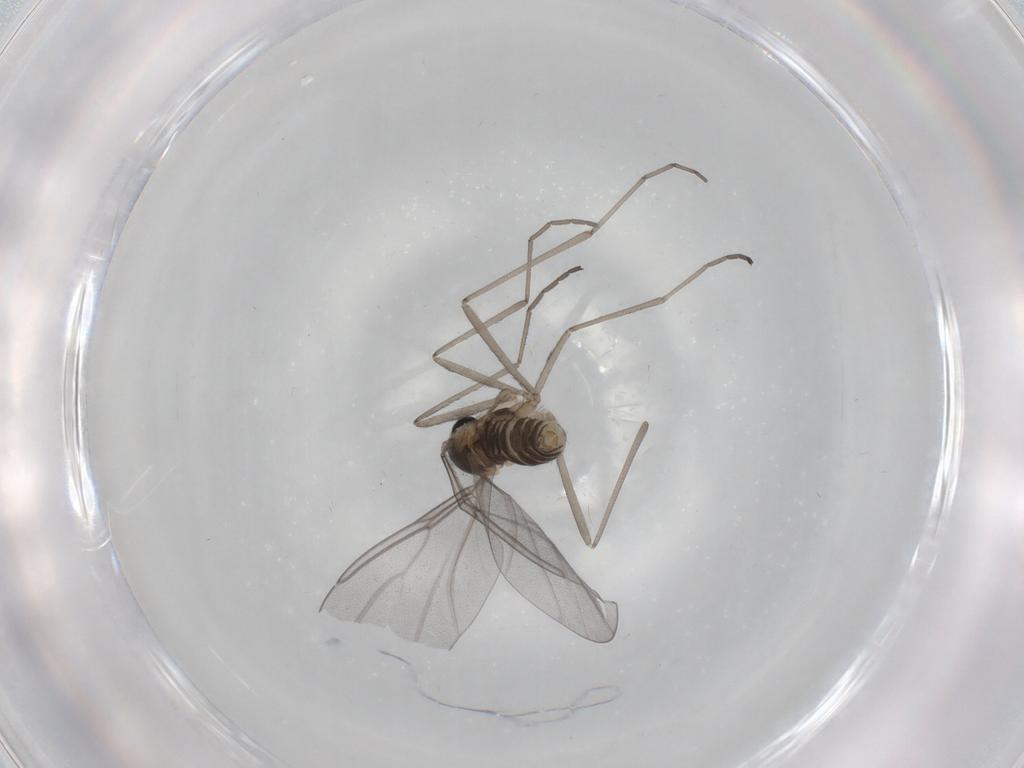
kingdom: Animalia
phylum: Arthropoda
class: Insecta
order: Diptera
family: Cecidomyiidae
